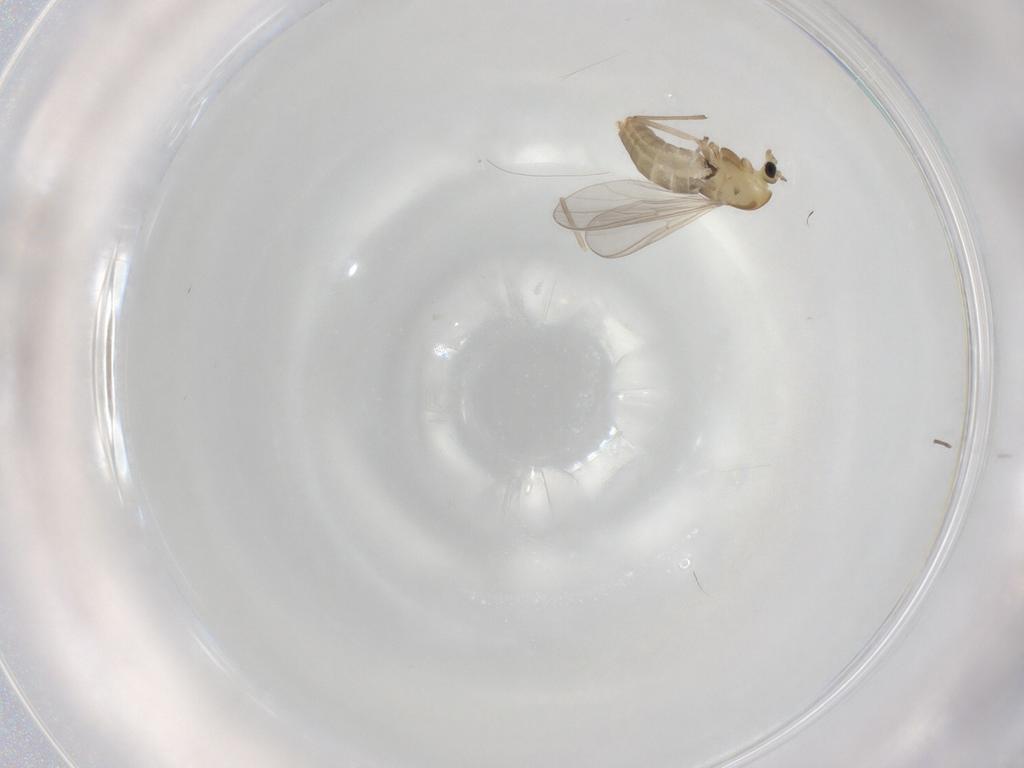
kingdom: Animalia
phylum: Arthropoda
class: Insecta
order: Diptera
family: Chironomidae
